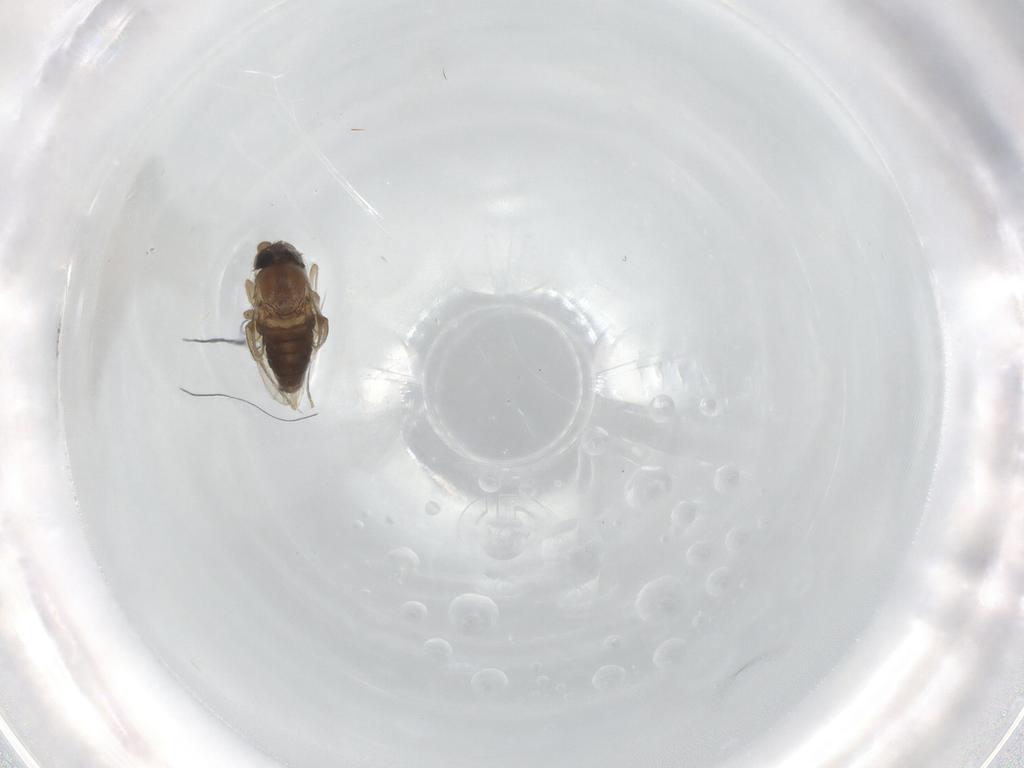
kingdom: Animalia
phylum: Arthropoda
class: Insecta
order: Diptera
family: Phoridae
